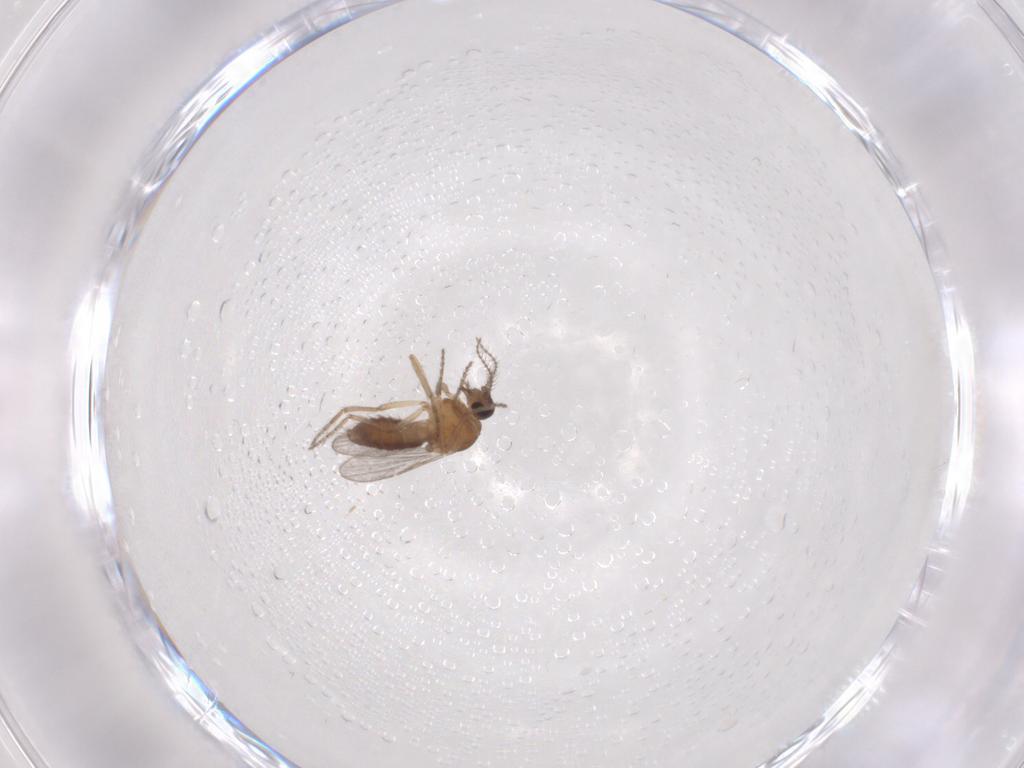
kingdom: Animalia
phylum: Arthropoda
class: Insecta
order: Diptera
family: Ceratopogonidae
